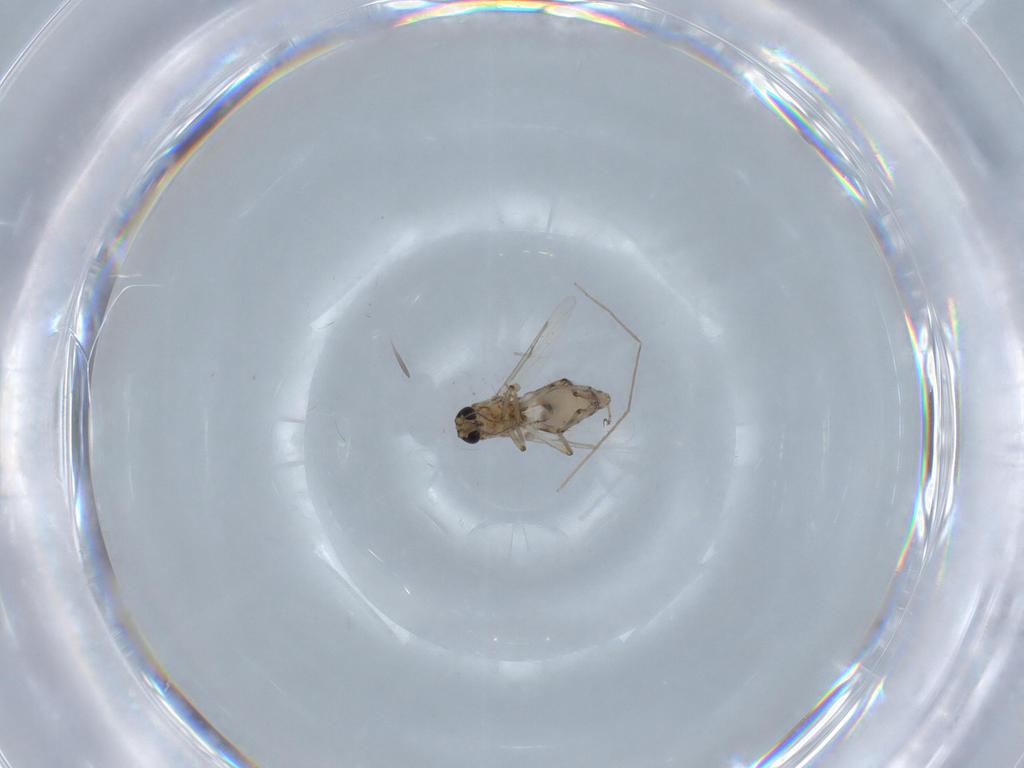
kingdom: Animalia
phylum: Arthropoda
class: Insecta
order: Diptera
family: Ceratopogonidae
